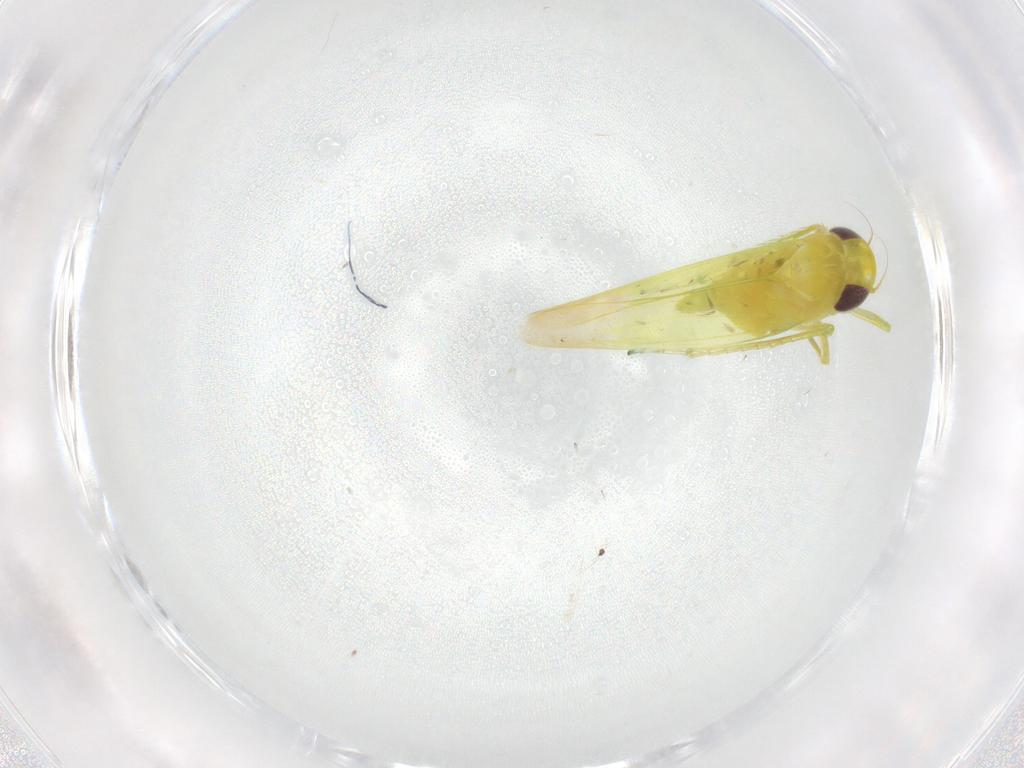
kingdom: Animalia
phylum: Arthropoda
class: Insecta
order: Hemiptera
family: Cicadellidae
